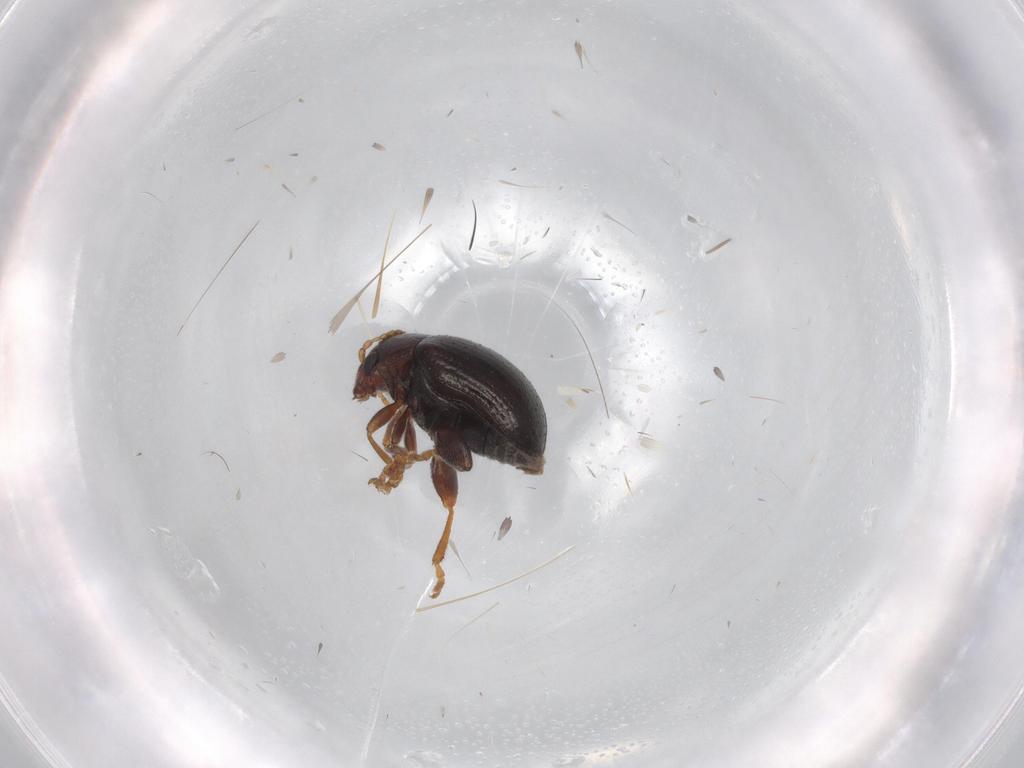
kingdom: Animalia
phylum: Arthropoda
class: Insecta
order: Coleoptera
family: Chrysomelidae
